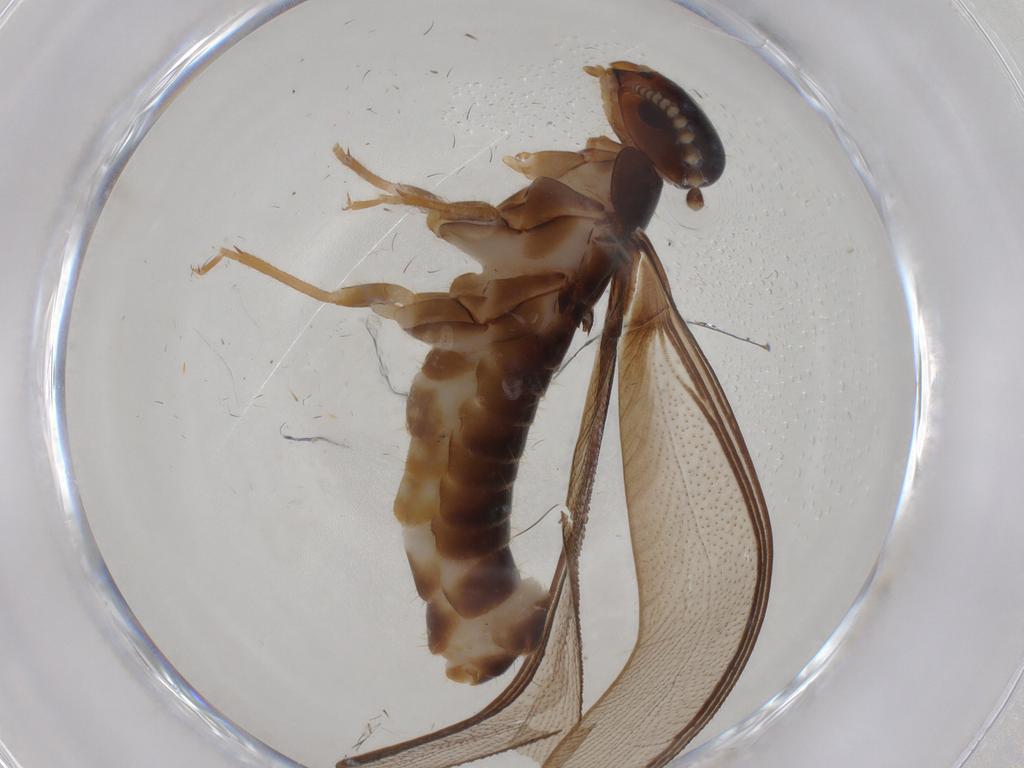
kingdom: Animalia
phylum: Arthropoda
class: Insecta
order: Blattodea
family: Kalotermitidae
